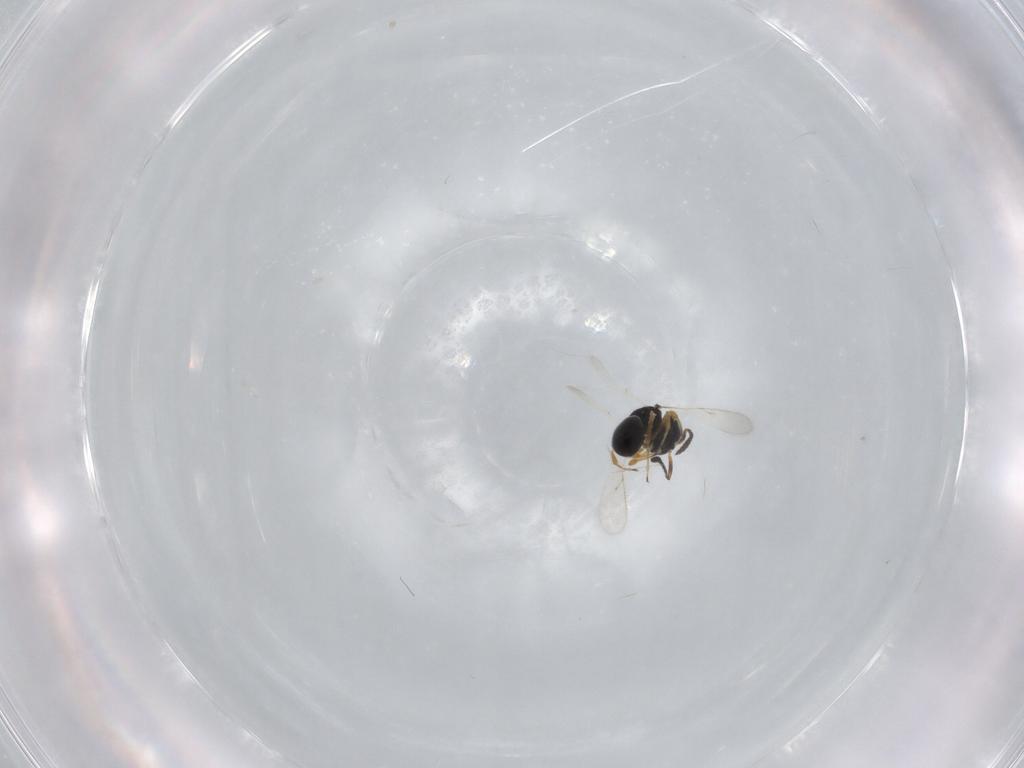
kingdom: Animalia
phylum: Arthropoda
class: Insecta
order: Hymenoptera
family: Scelionidae
